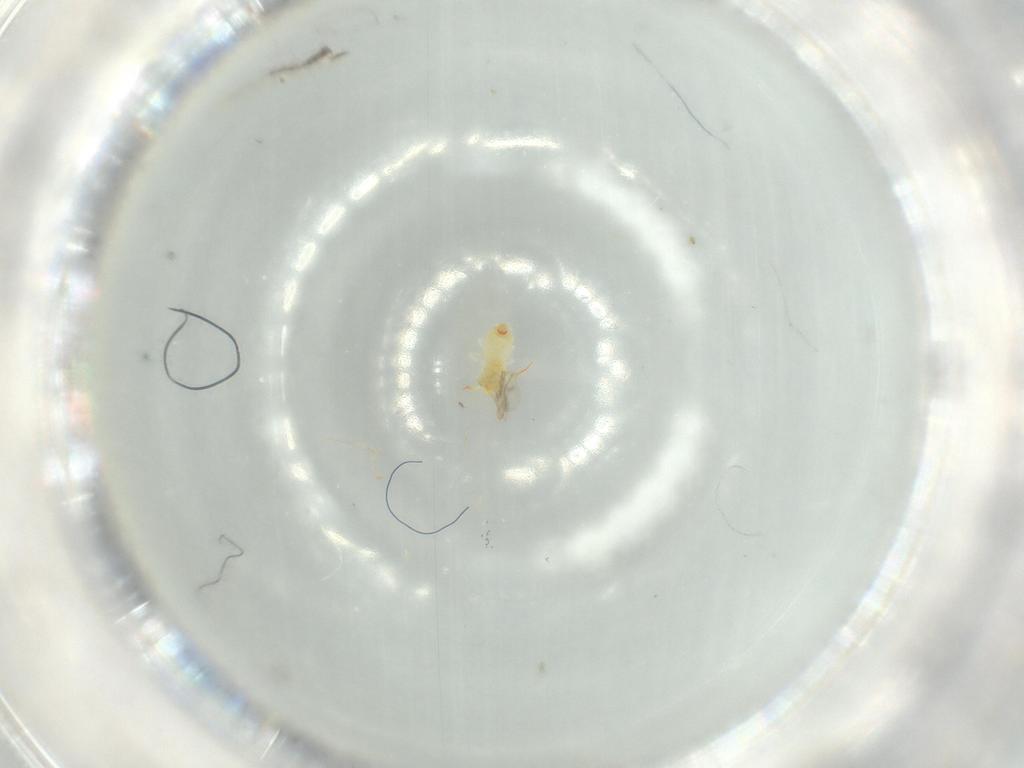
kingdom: Animalia
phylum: Arthropoda
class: Insecta
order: Hemiptera
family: Aleyrodidae
